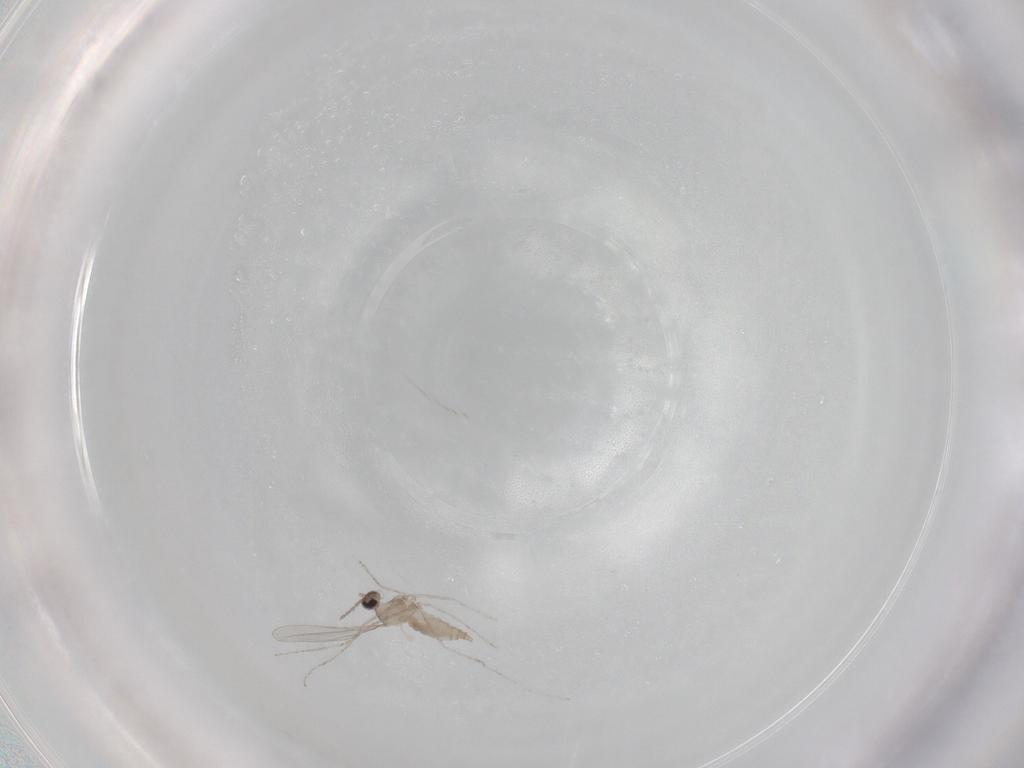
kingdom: Animalia
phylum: Arthropoda
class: Insecta
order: Diptera
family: Cecidomyiidae
